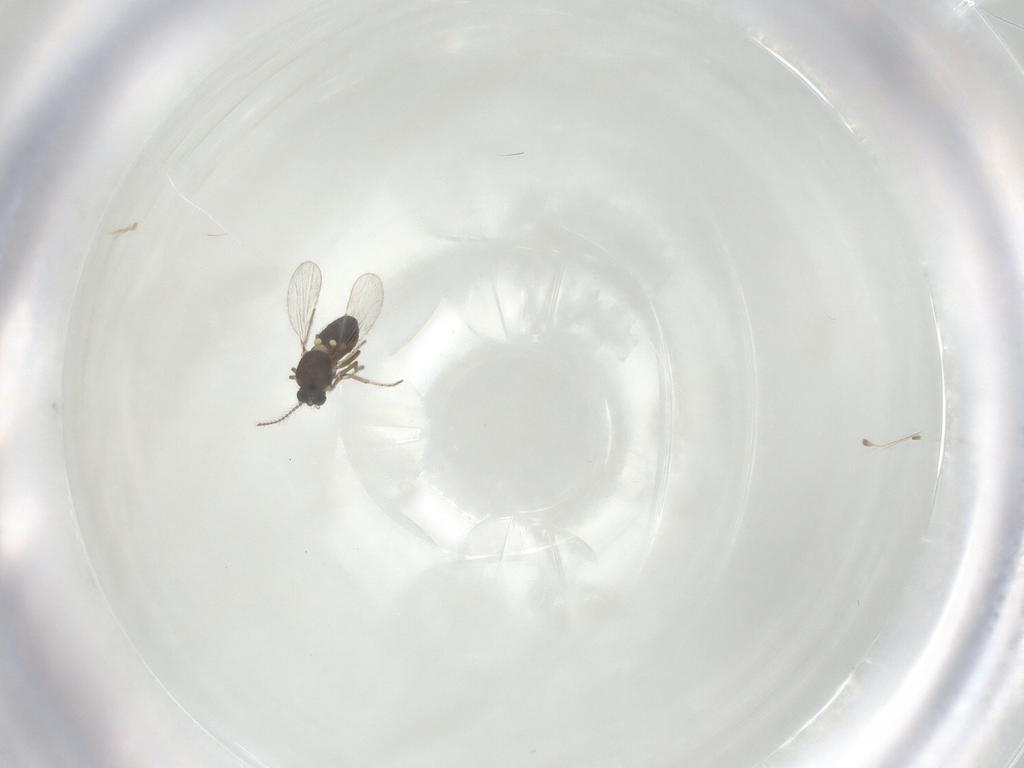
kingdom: Animalia
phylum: Arthropoda
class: Insecta
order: Diptera
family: Ceratopogonidae
